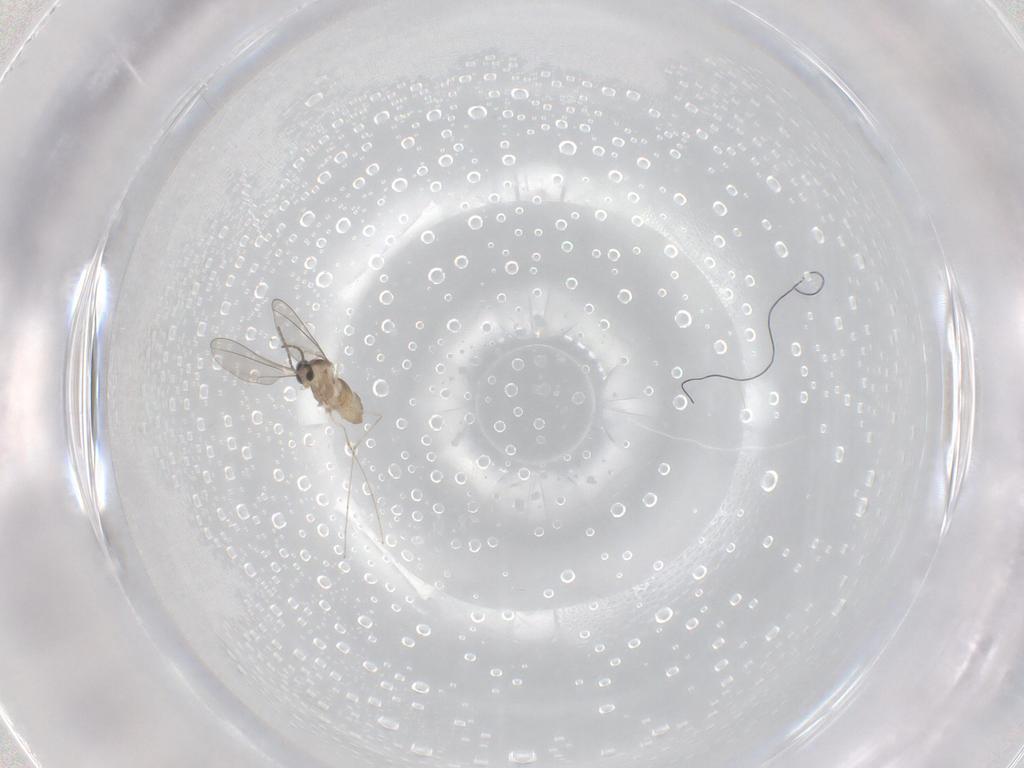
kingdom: Animalia
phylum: Arthropoda
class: Insecta
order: Diptera
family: Cecidomyiidae
